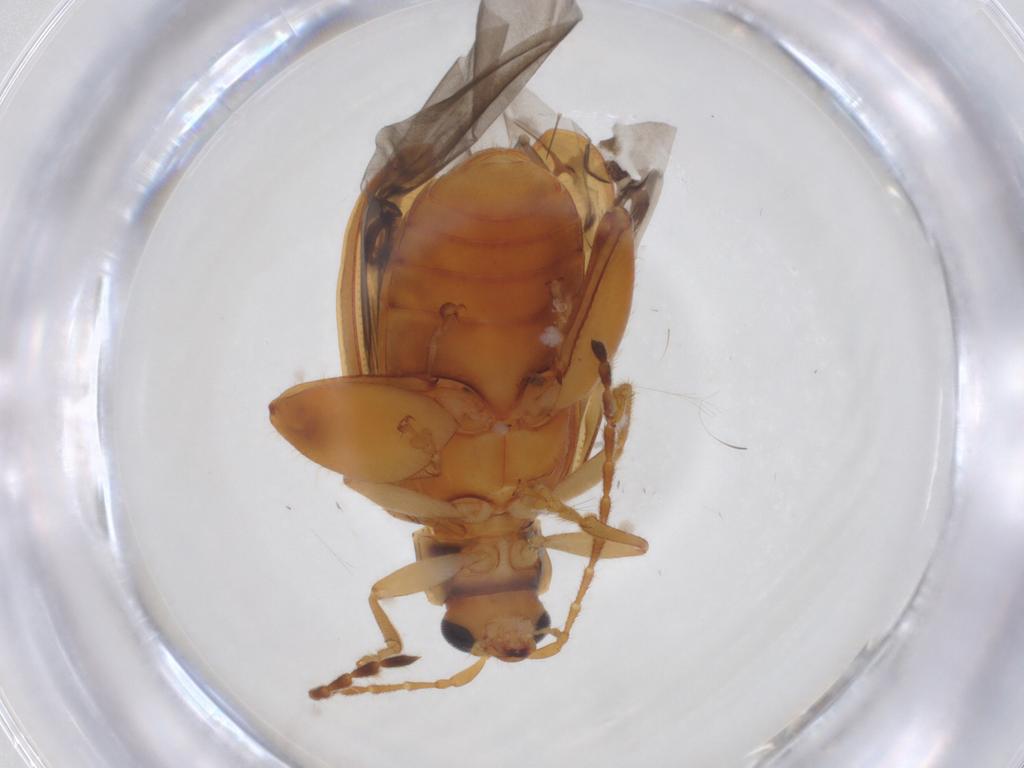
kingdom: Animalia
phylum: Arthropoda
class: Insecta
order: Coleoptera
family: Chrysomelidae
